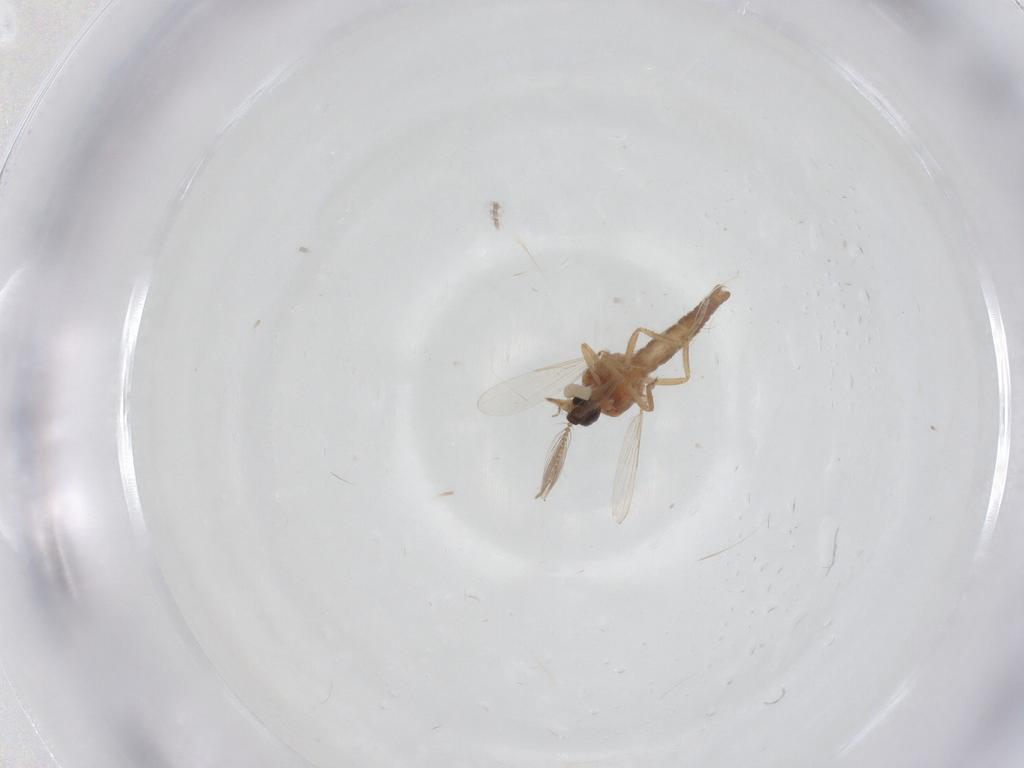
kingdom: Animalia
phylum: Arthropoda
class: Insecta
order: Diptera
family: Ceratopogonidae
